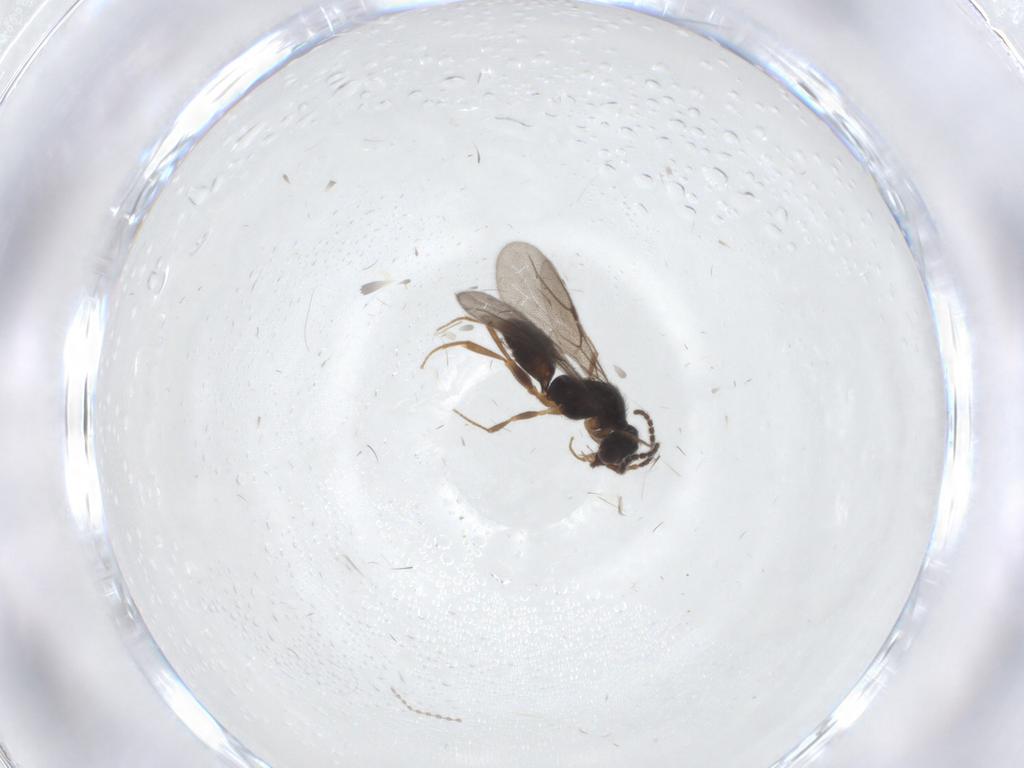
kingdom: Animalia
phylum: Arthropoda
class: Insecta
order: Hymenoptera
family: Bethylidae
